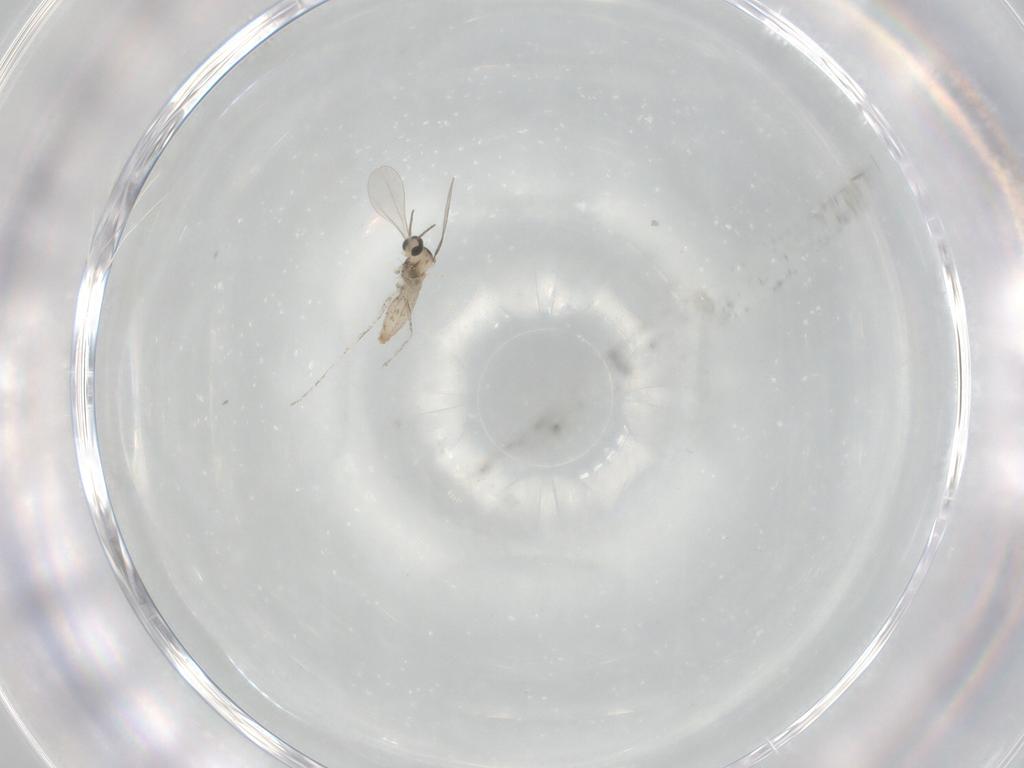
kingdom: Animalia
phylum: Arthropoda
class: Insecta
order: Diptera
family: Cecidomyiidae
